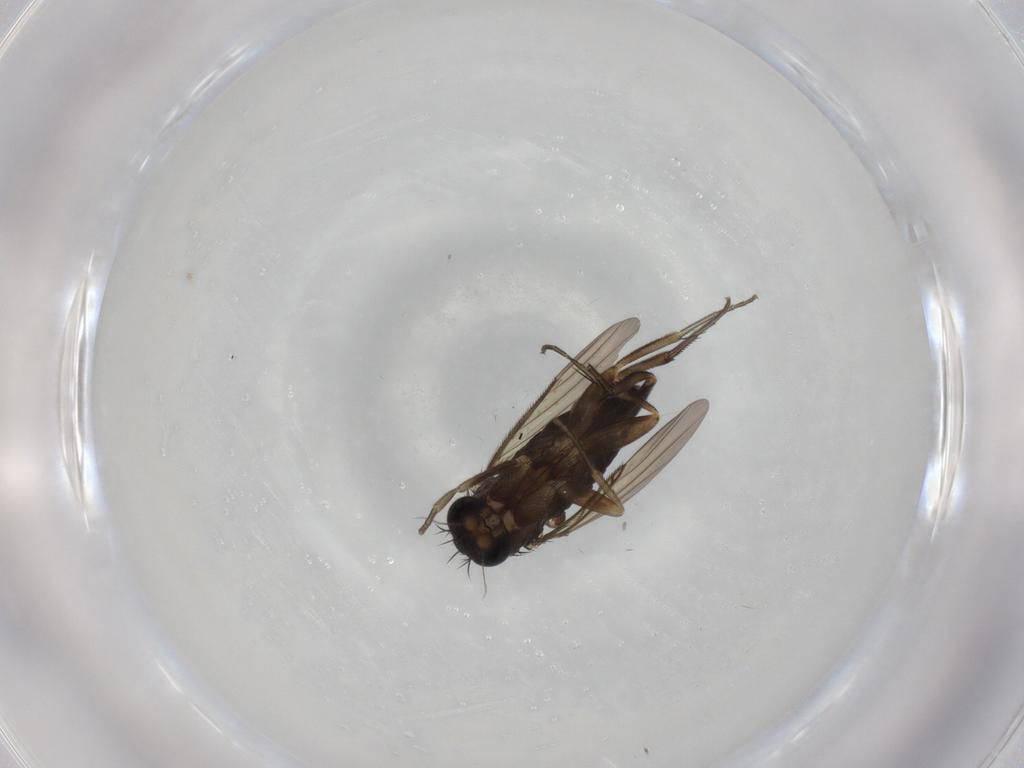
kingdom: Animalia
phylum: Arthropoda
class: Insecta
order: Diptera
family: Phoridae
